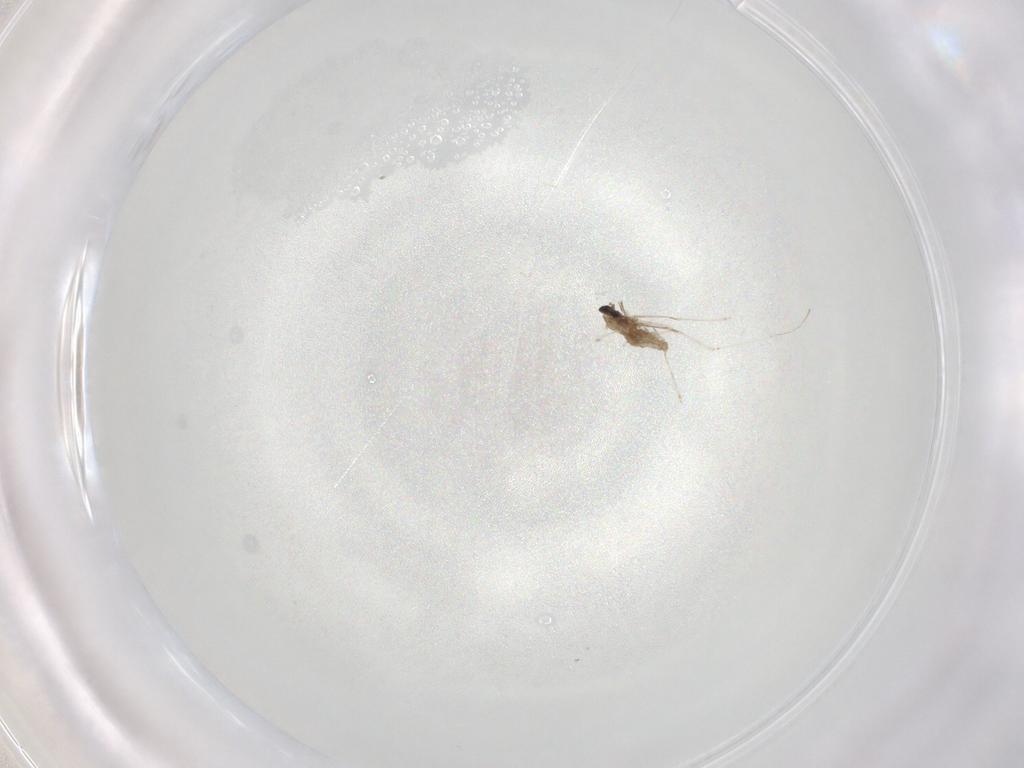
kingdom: Animalia
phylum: Arthropoda
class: Insecta
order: Diptera
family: Cecidomyiidae
